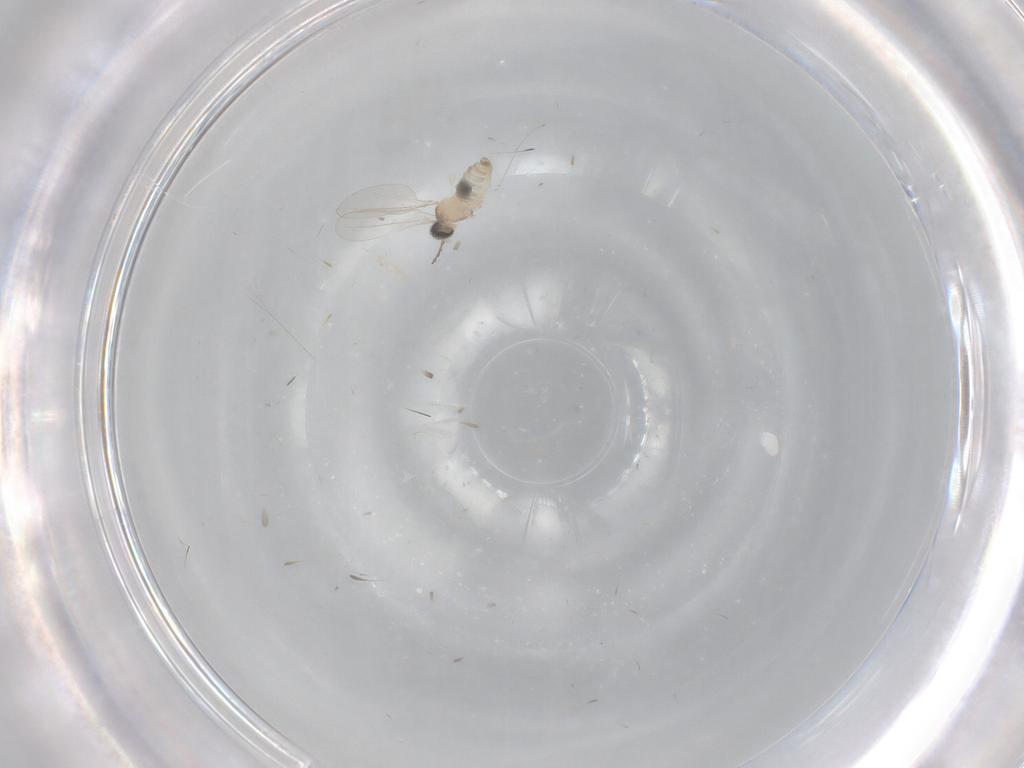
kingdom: Animalia
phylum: Arthropoda
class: Insecta
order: Diptera
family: Cecidomyiidae
